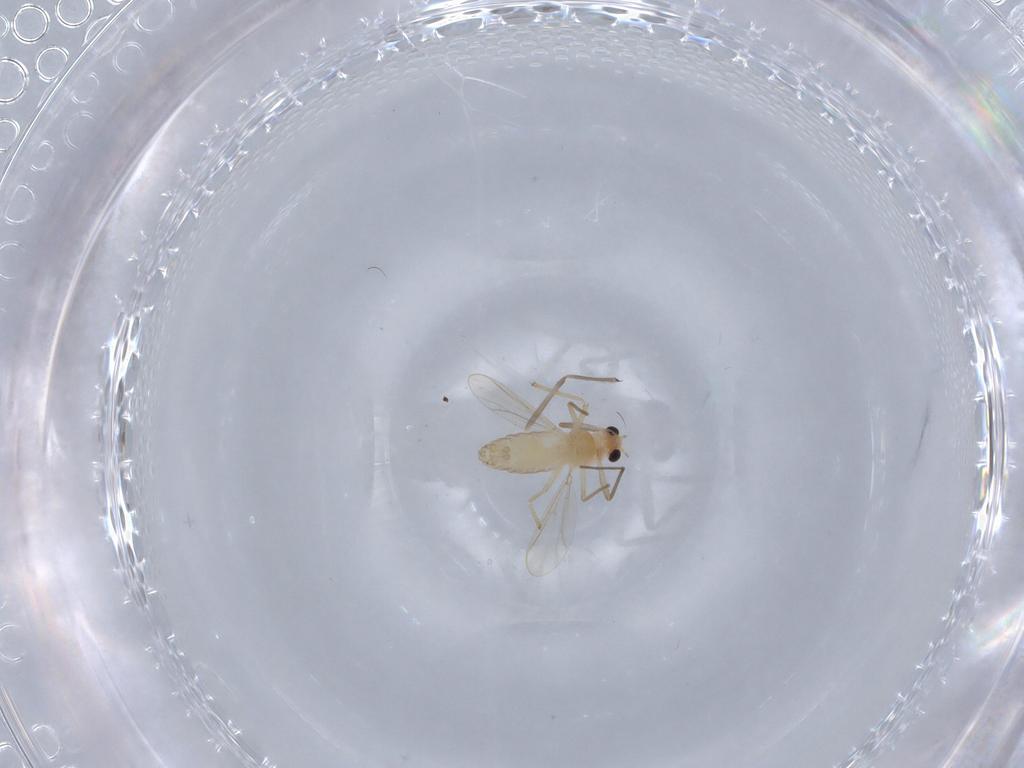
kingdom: Animalia
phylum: Arthropoda
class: Insecta
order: Diptera
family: Chironomidae
